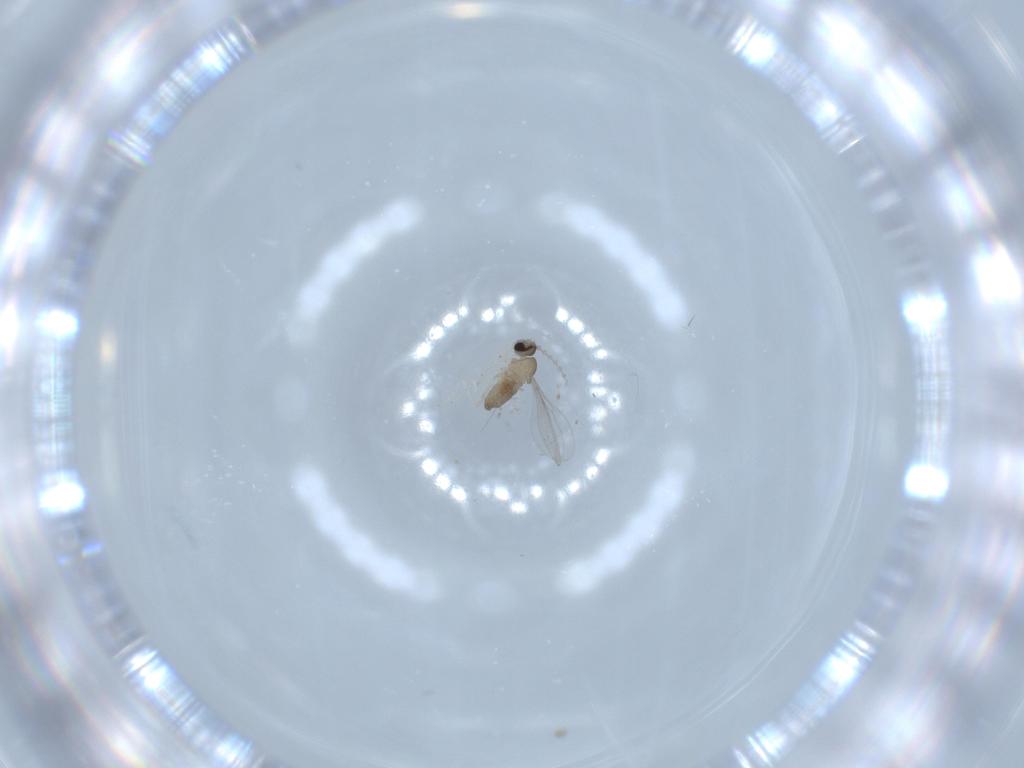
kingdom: Animalia
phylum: Arthropoda
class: Insecta
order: Diptera
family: Cecidomyiidae
